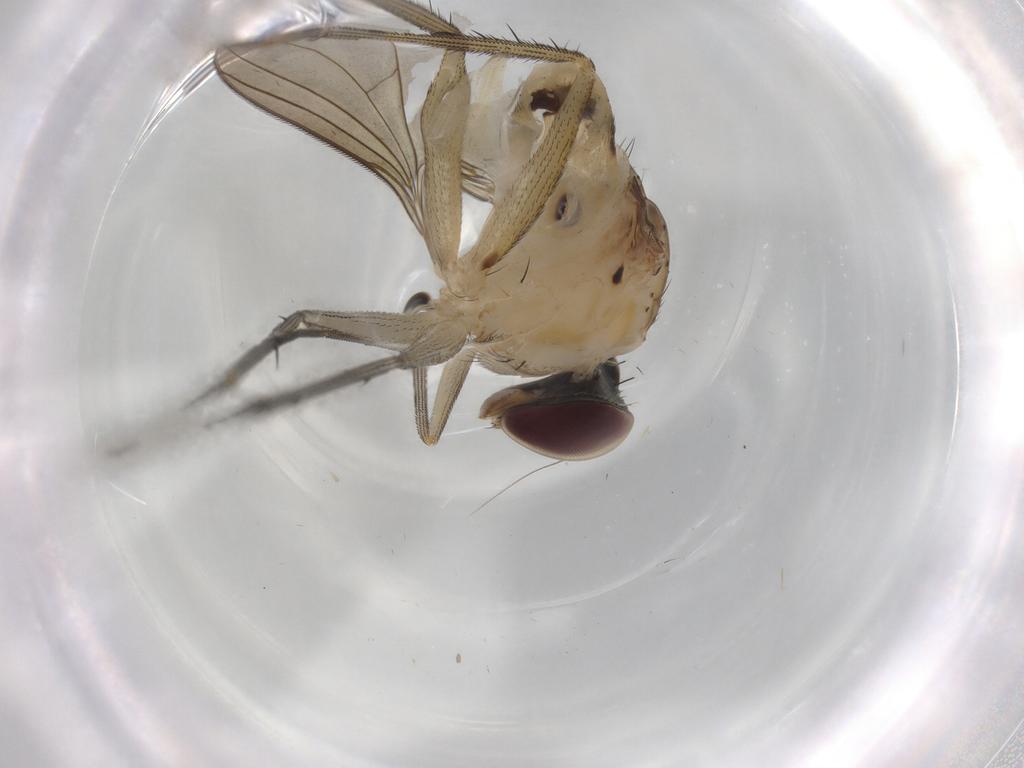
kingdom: Animalia
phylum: Arthropoda
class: Insecta
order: Diptera
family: Dolichopodidae
